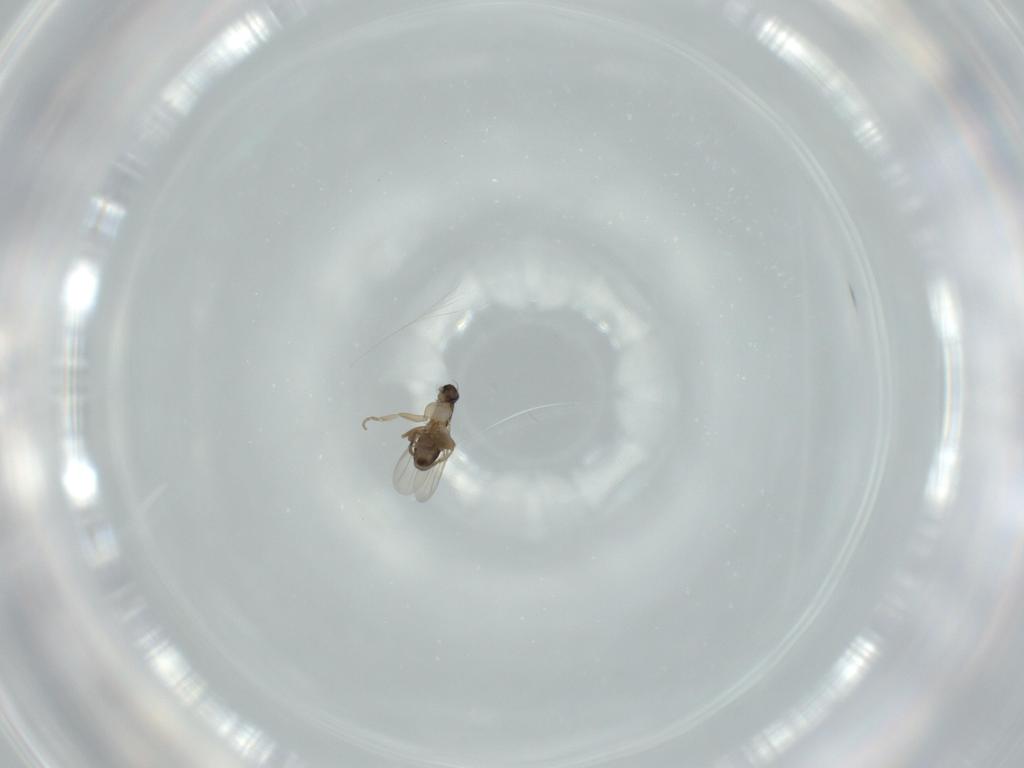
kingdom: Animalia
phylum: Arthropoda
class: Insecta
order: Diptera
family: Phoridae
